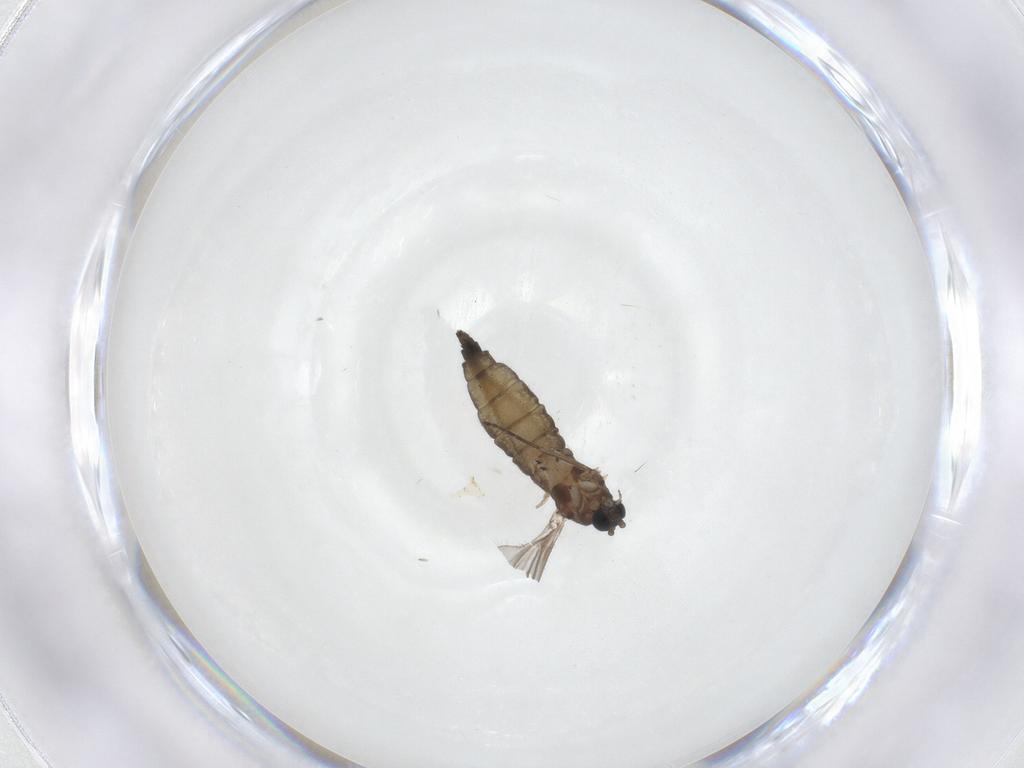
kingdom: Animalia
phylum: Arthropoda
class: Insecta
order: Diptera
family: Sciaridae
